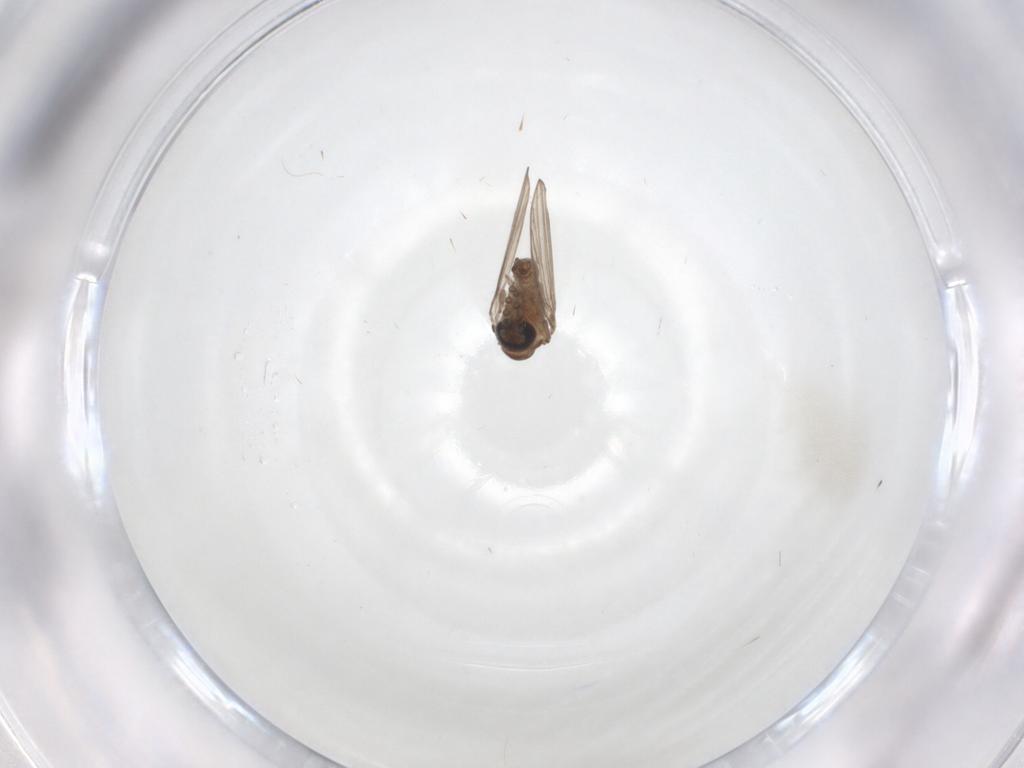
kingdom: Animalia
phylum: Arthropoda
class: Insecta
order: Diptera
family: Psychodidae
